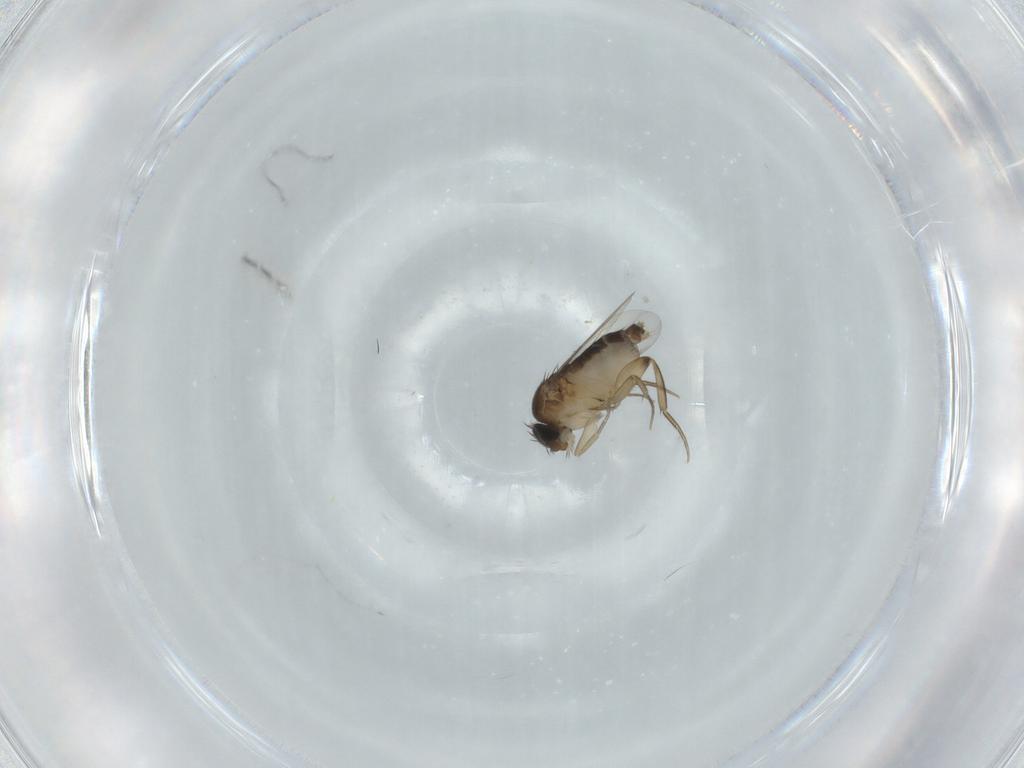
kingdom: Animalia
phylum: Arthropoda
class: Insecta
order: Diptera
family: Phoridae
